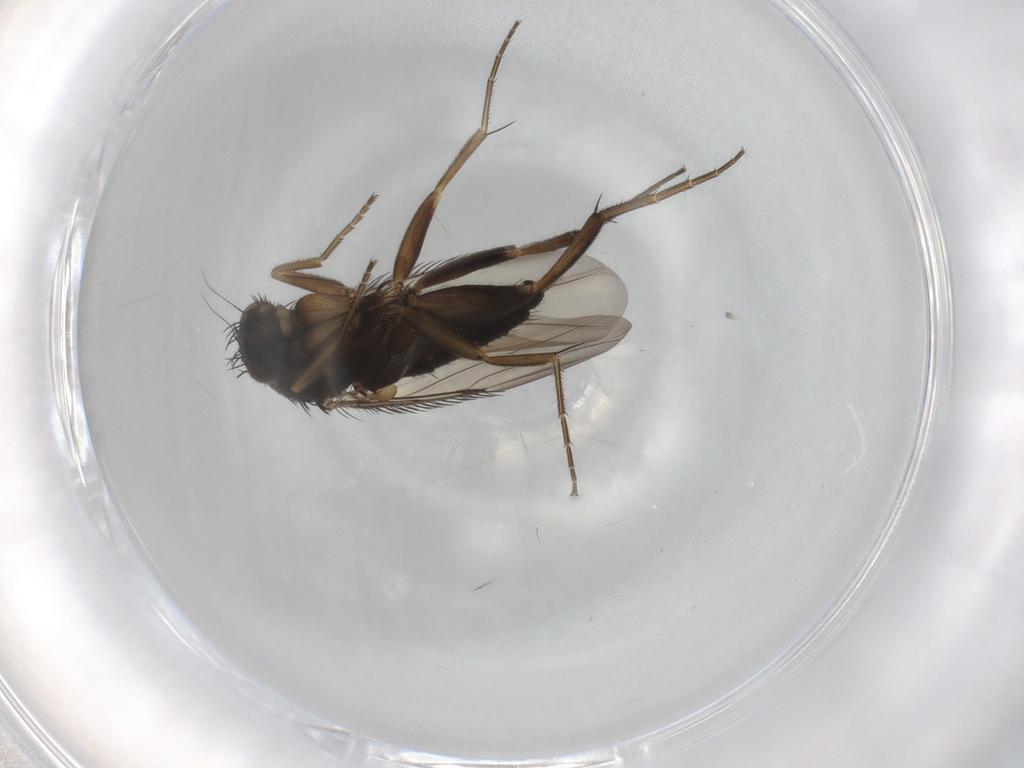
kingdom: Animalia
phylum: Arthropoda
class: Insecta
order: Diptera
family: Phoridae
